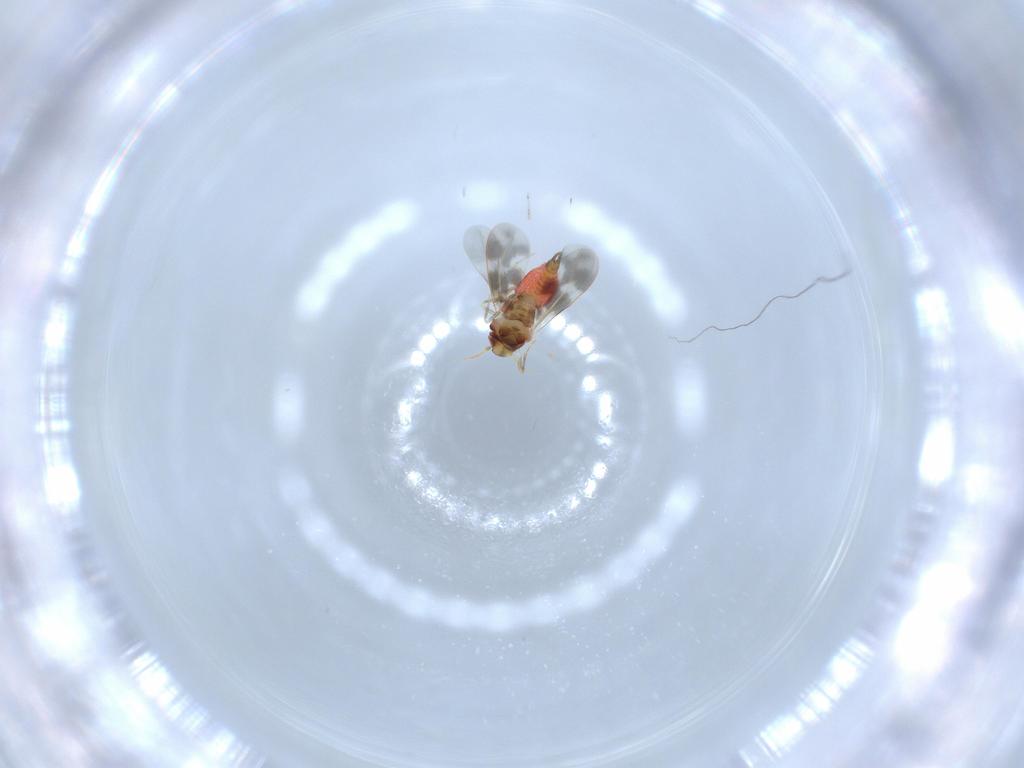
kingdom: Animalia
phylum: Arthropoda
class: Insecta
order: Hemiptera
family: Aleyrodidae
